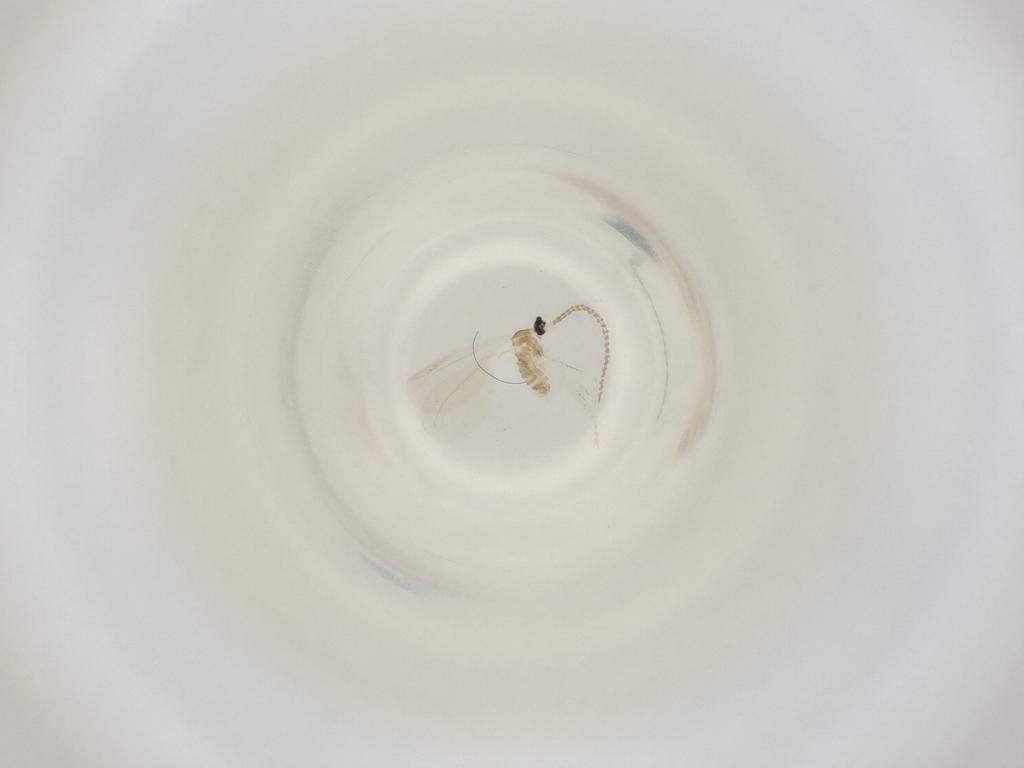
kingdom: Animalia
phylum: Arthropoda
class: Insecta
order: Diptera
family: Cecidomyiidae
